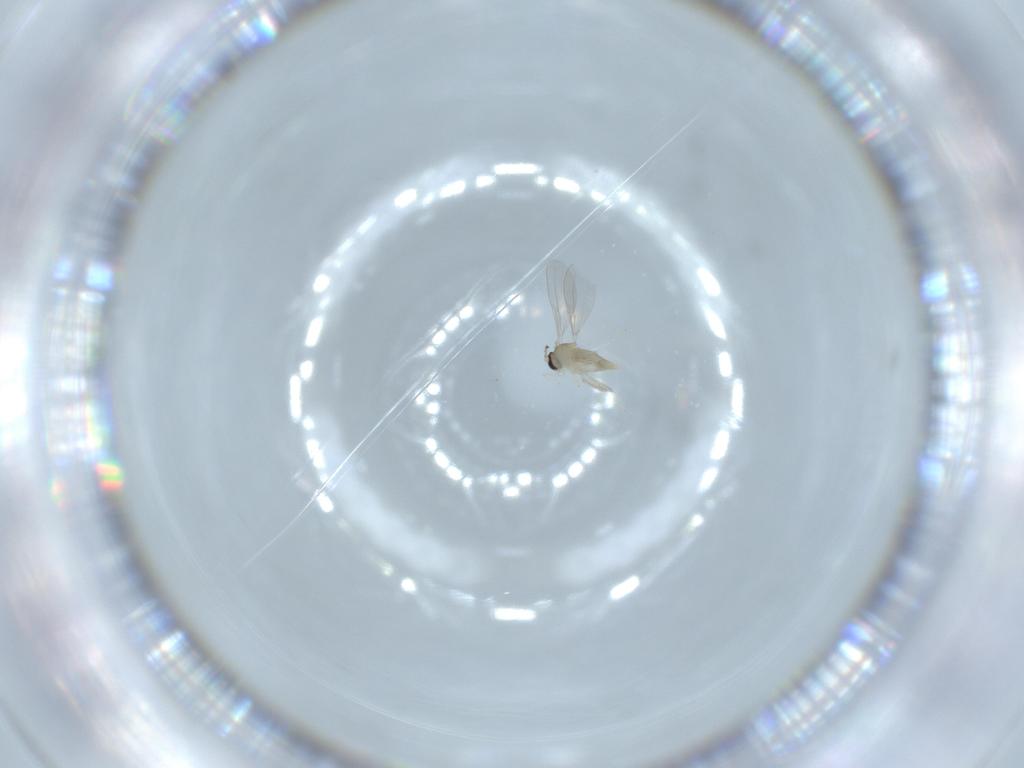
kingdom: Animalia
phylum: Arthropoda
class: Insecta
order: Diptera
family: Cecidomyiidae
